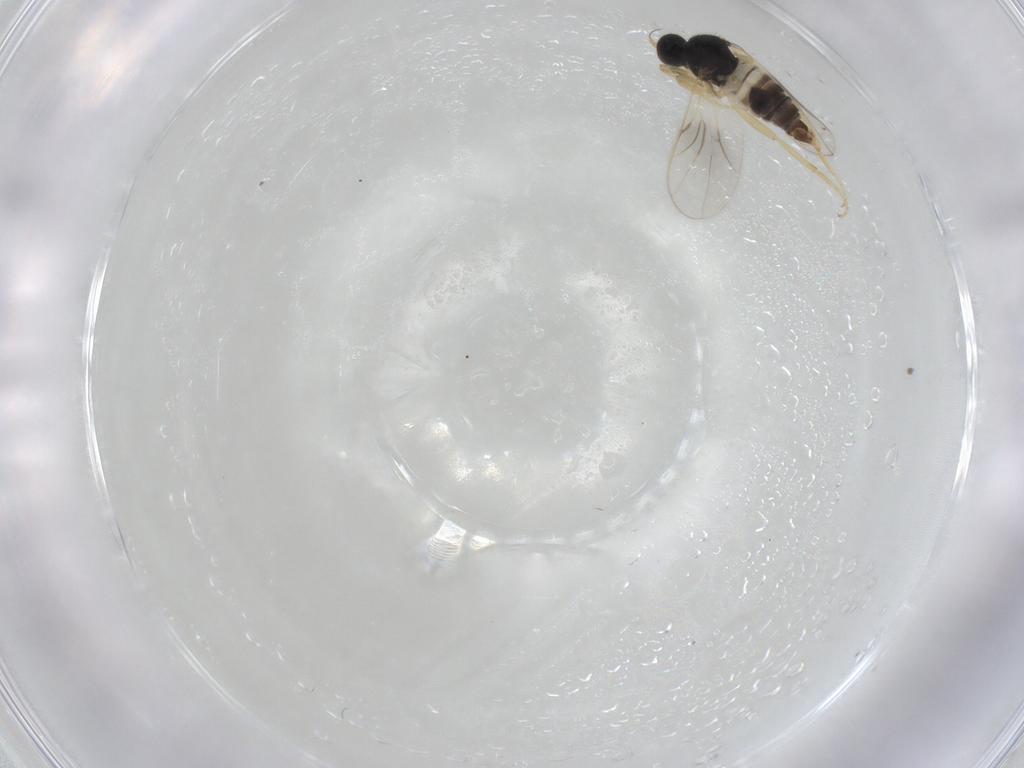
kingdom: Animalia
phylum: Arthropoda
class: Insecta
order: Diptera
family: Hybotidae
